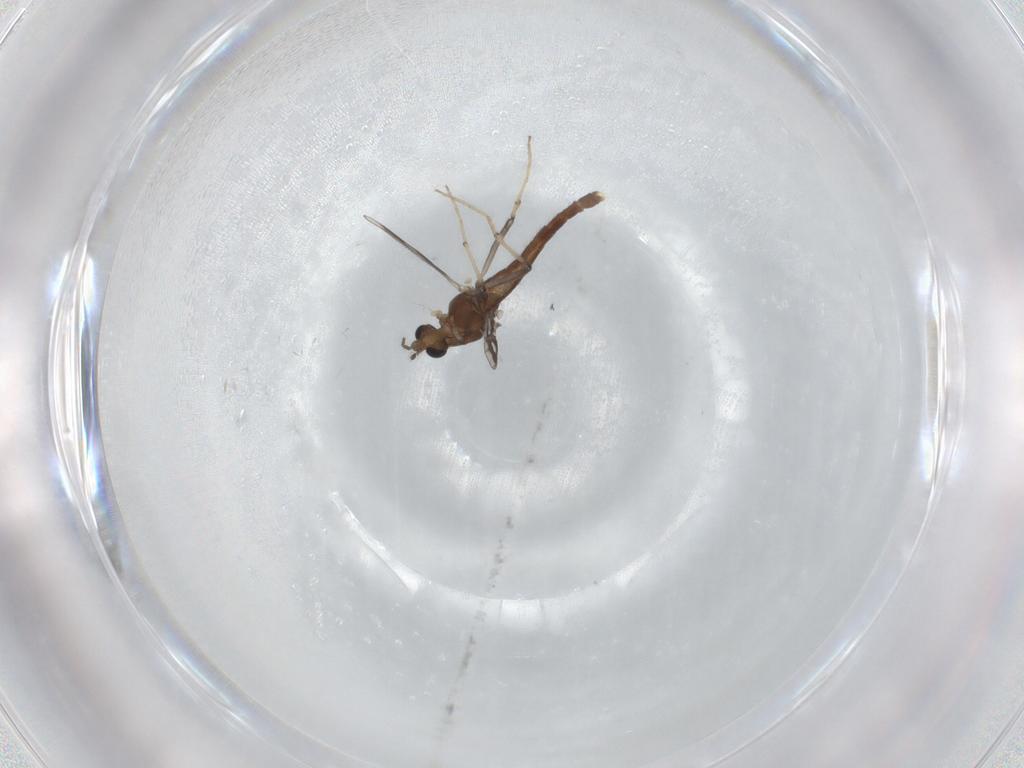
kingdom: Animalia
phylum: Arthropoda
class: Insecta
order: Diptera
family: Chironomidae
